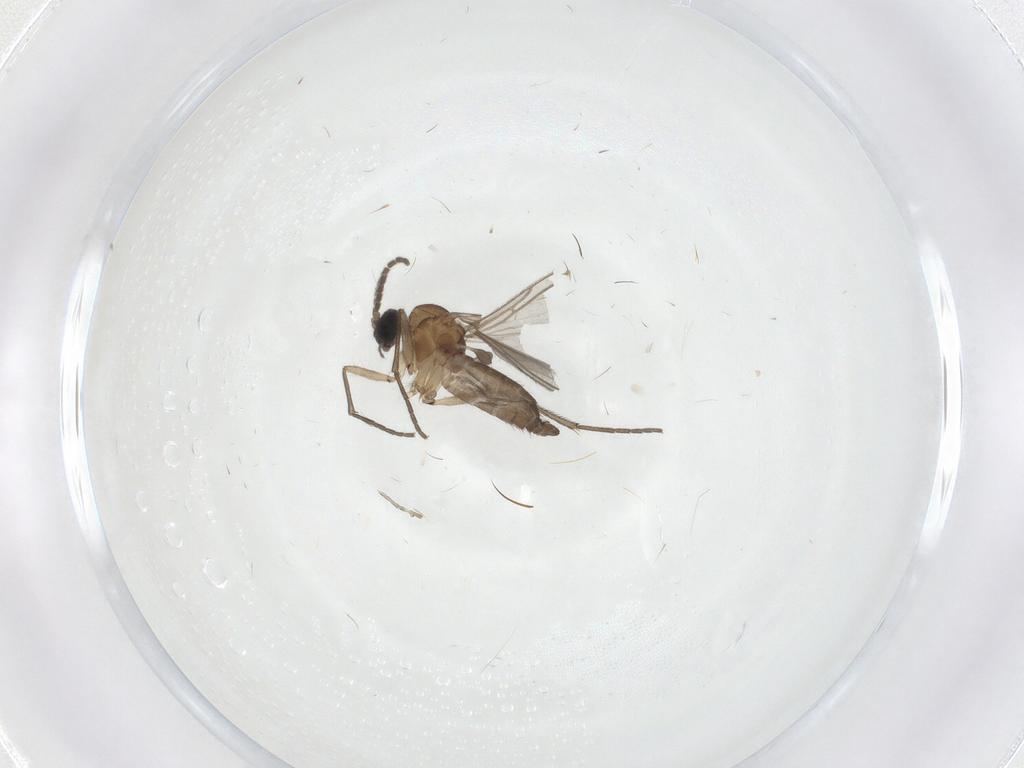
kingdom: Animalia
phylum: Arthropoda
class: Insecta
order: Diptera
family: Sciaridae
